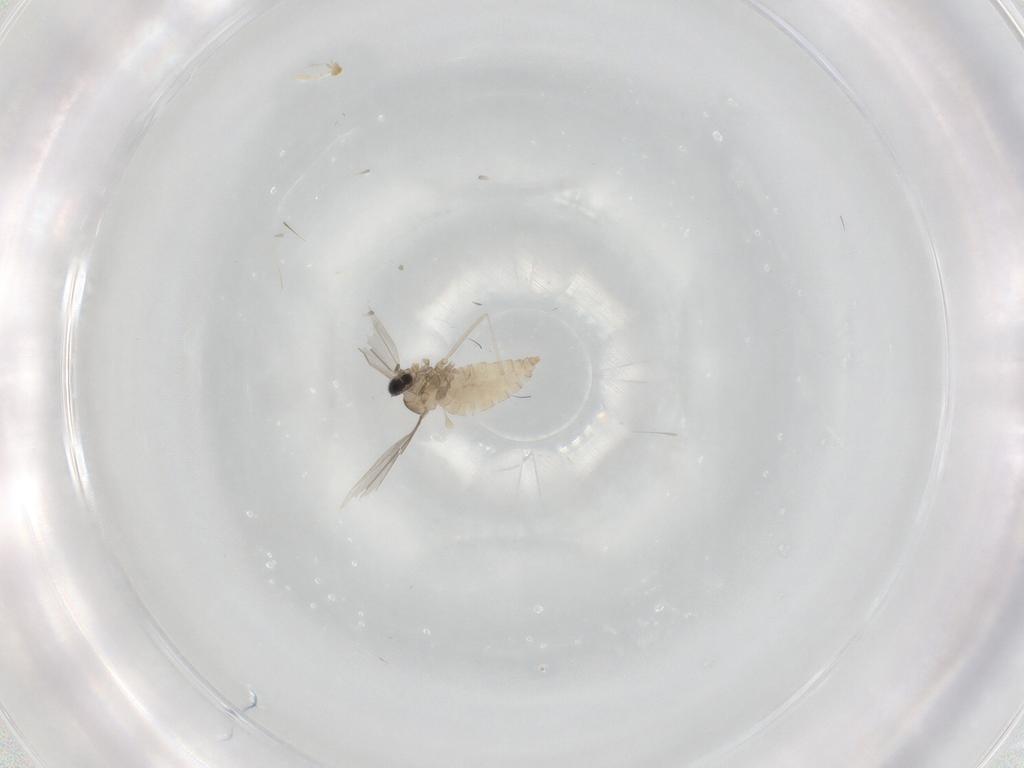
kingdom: Animalia
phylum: Arthropoda
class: Insecta
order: Diptera
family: Cecidomyiidae
